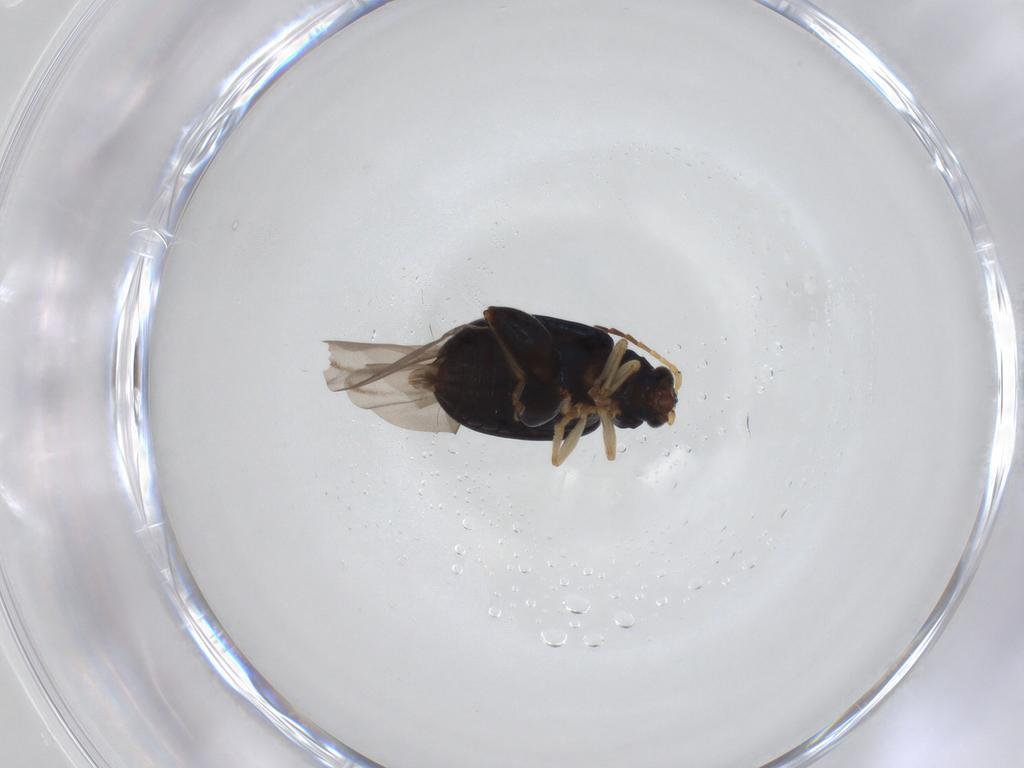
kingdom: Animalia
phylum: Arthropoda
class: Insecta
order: Coleoptera
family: Chrysomelidae
